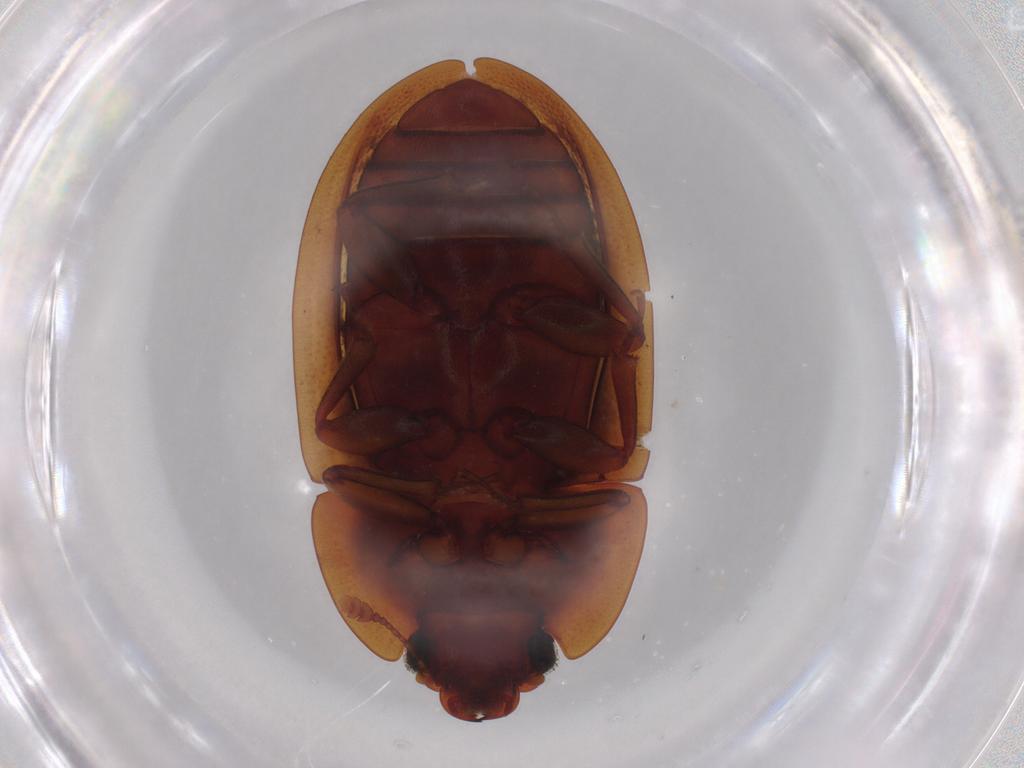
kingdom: Animalia
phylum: Arthropoda
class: Insecta
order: Coleoptera
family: Nitidulidae
